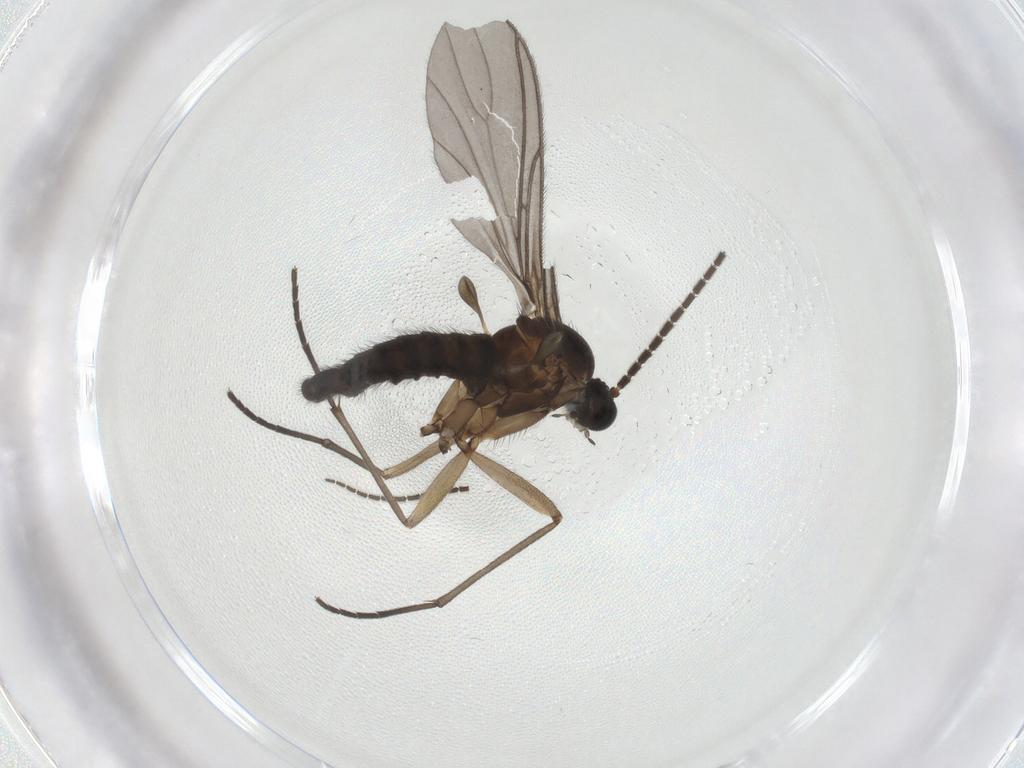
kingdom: Animalia
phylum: Arthropoda
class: Insecta
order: Diptera
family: Sciaridae
